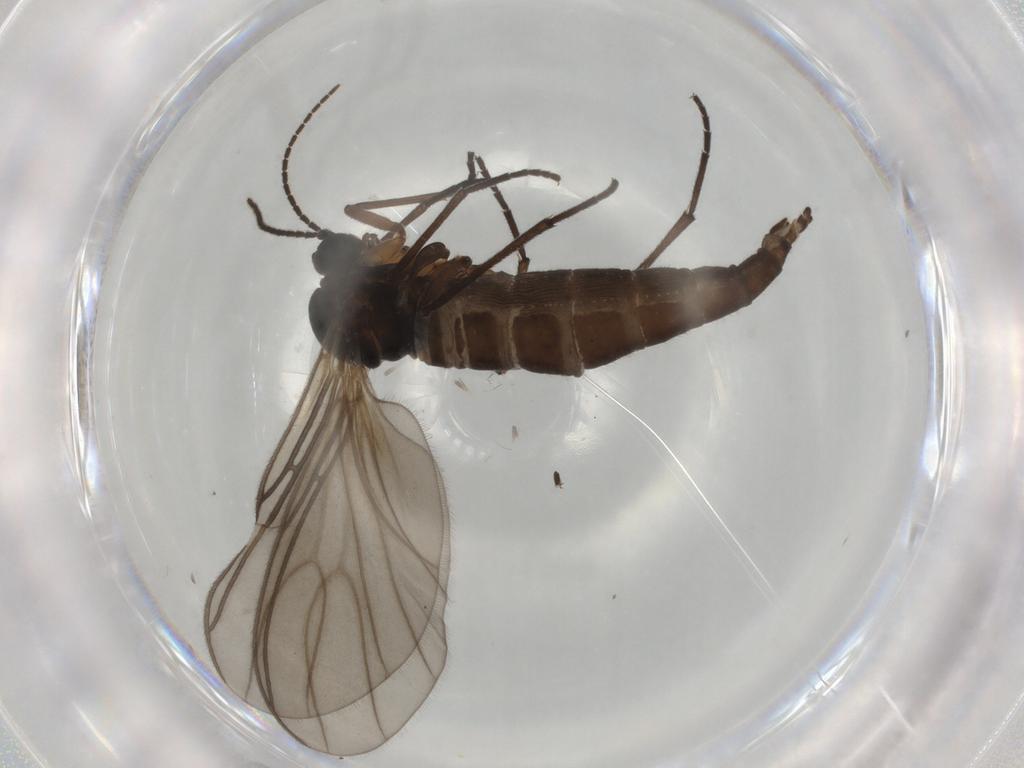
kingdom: Animalia
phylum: Arthropoda
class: Insecta
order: Diptera
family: Sciaridae
